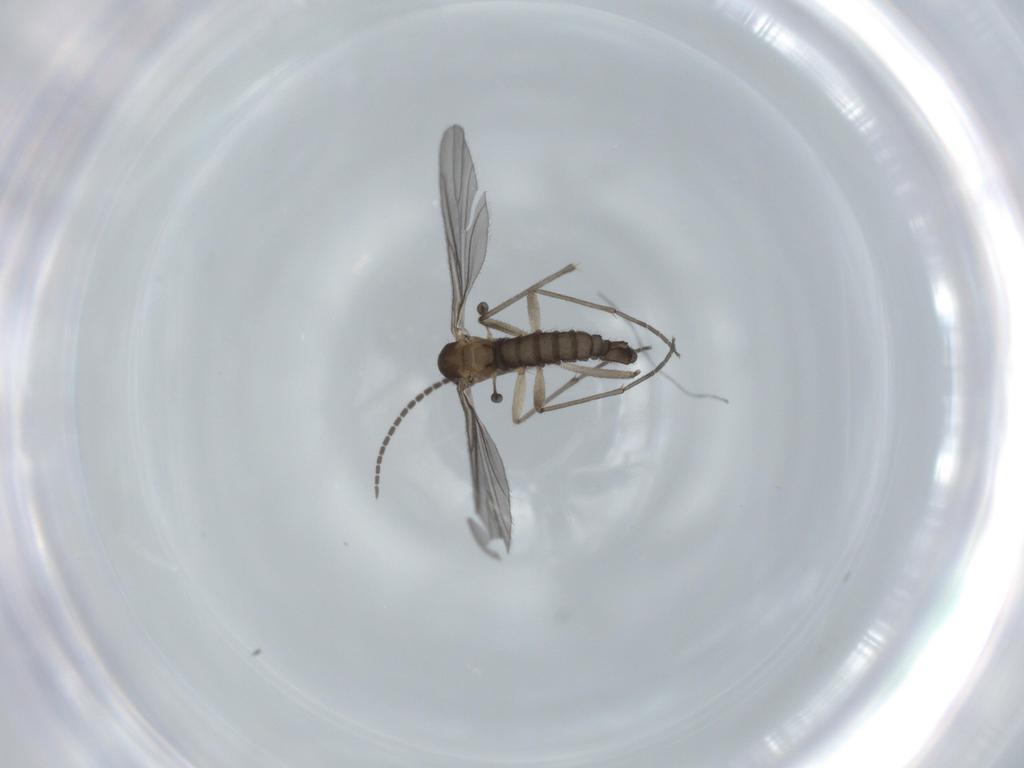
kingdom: Animalia
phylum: Arthropoda
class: Insecta
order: Diptera
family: Sciaridae
